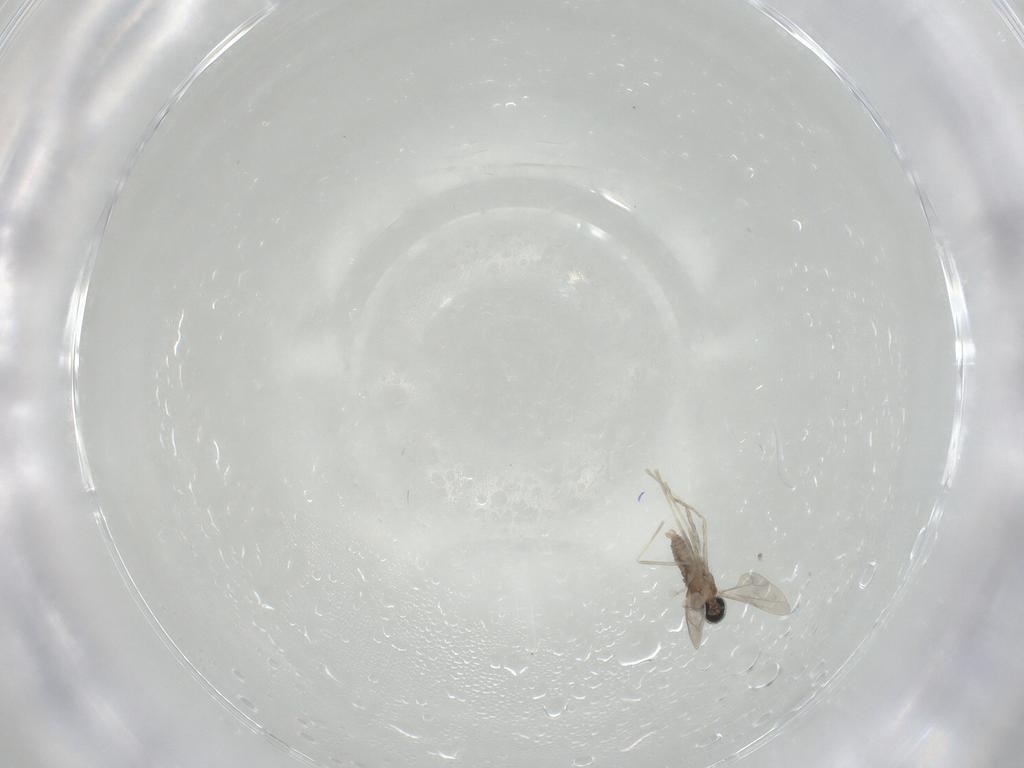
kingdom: Animalia
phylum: Arthropoda
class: Insecta
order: Diptera
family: Cecidomyiidae
